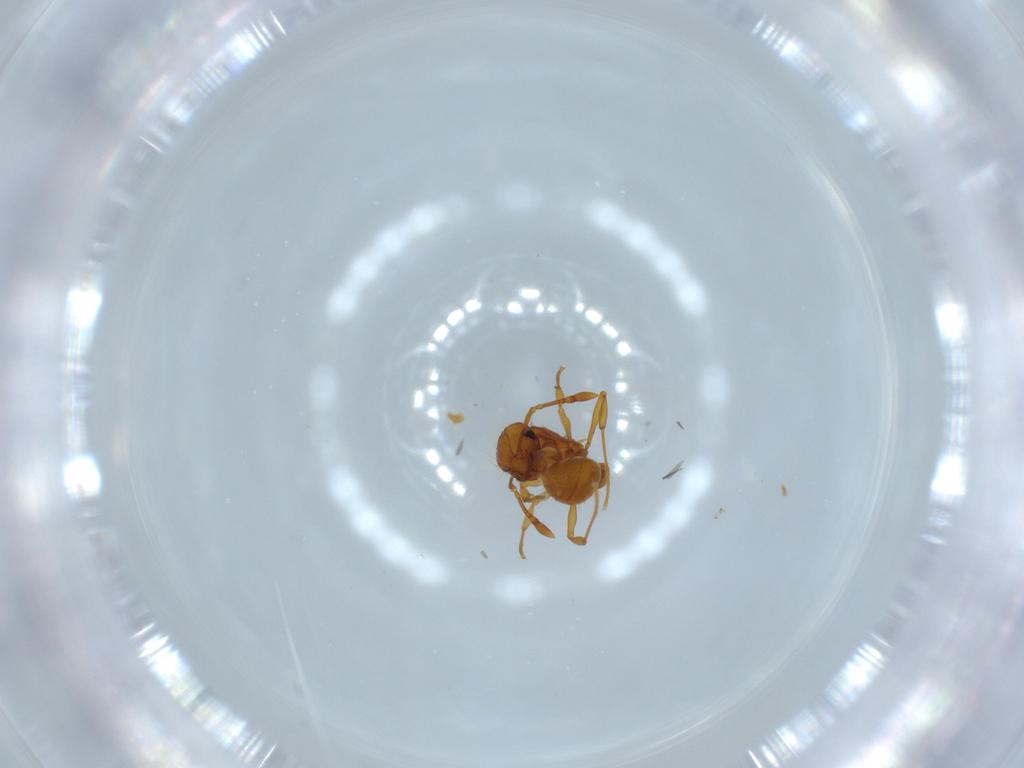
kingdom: Animalia
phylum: Arthropoda
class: Insecta
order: Hymenoptera
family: Formicidae
